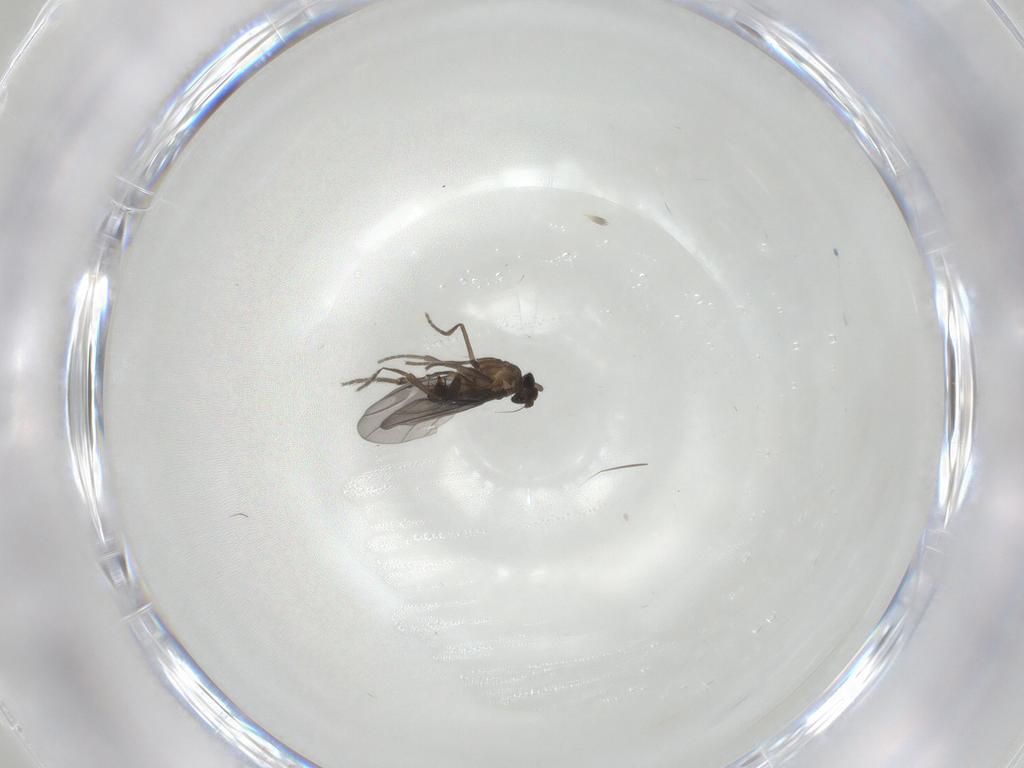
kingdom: Animalia
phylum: Arthropoda
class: Insecta
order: Diptera
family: Phoridae
